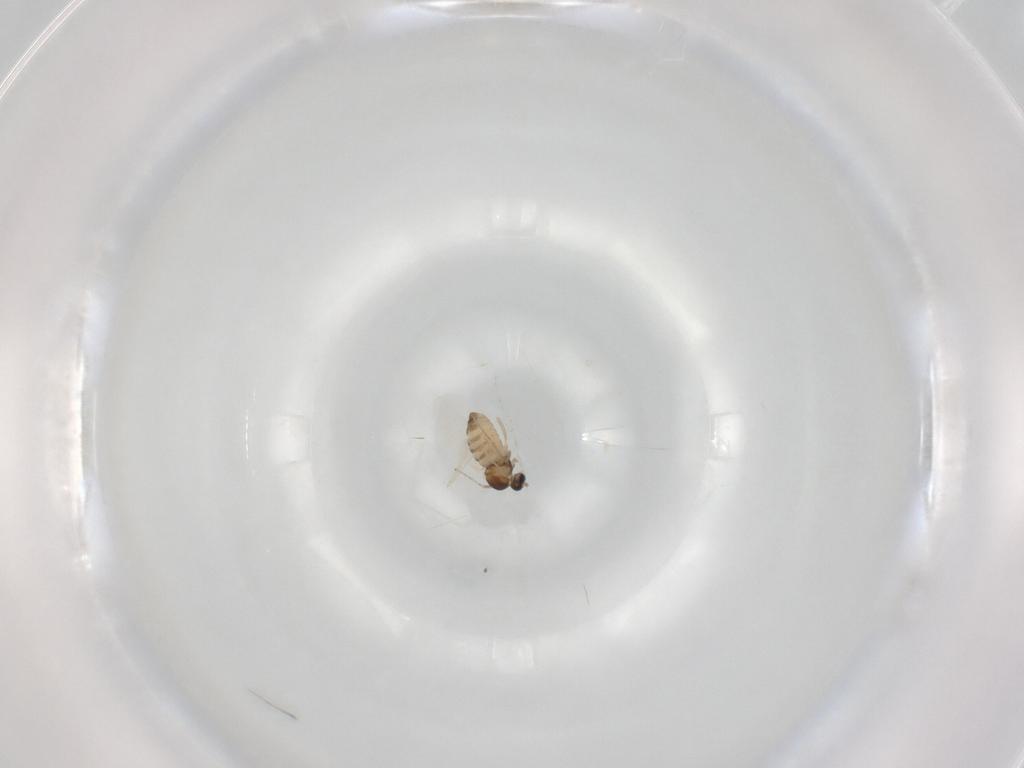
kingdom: Animalia
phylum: Arthropoda
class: Insecta
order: Diptera
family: Cecidomyiidae
